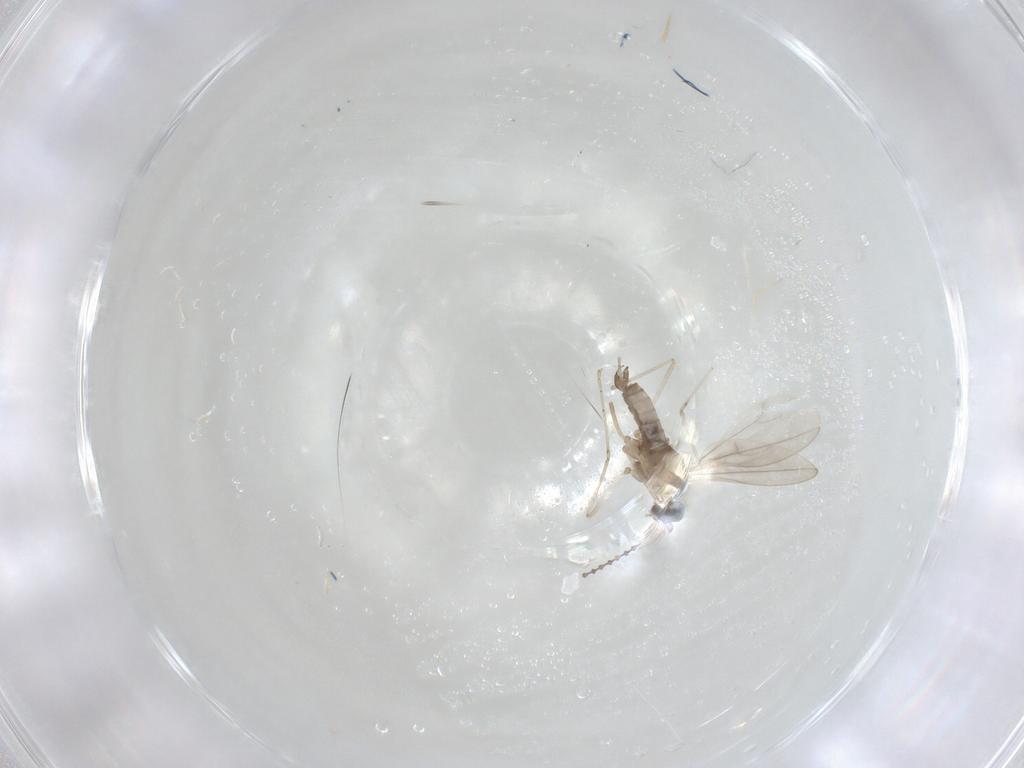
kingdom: Animalia
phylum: Arthropoda
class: Insecta
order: Diptera
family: Cecidomyiidae
